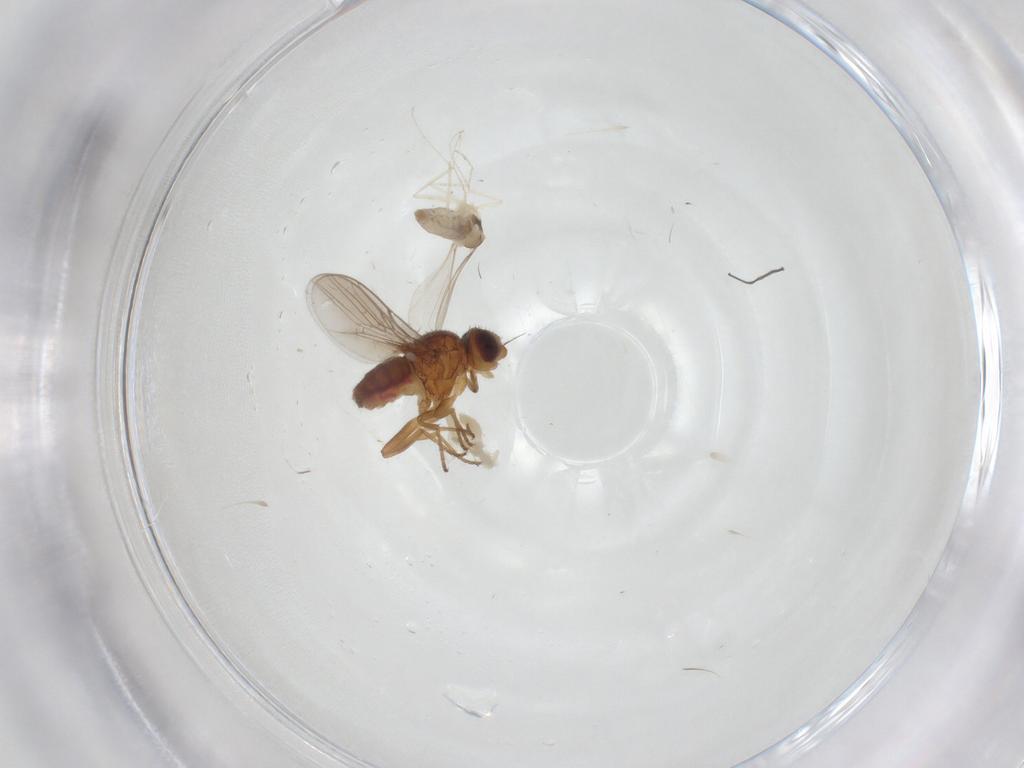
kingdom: Animalia
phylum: Arthropoda
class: Insecta
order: Diptera
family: Cecidomyiidae
